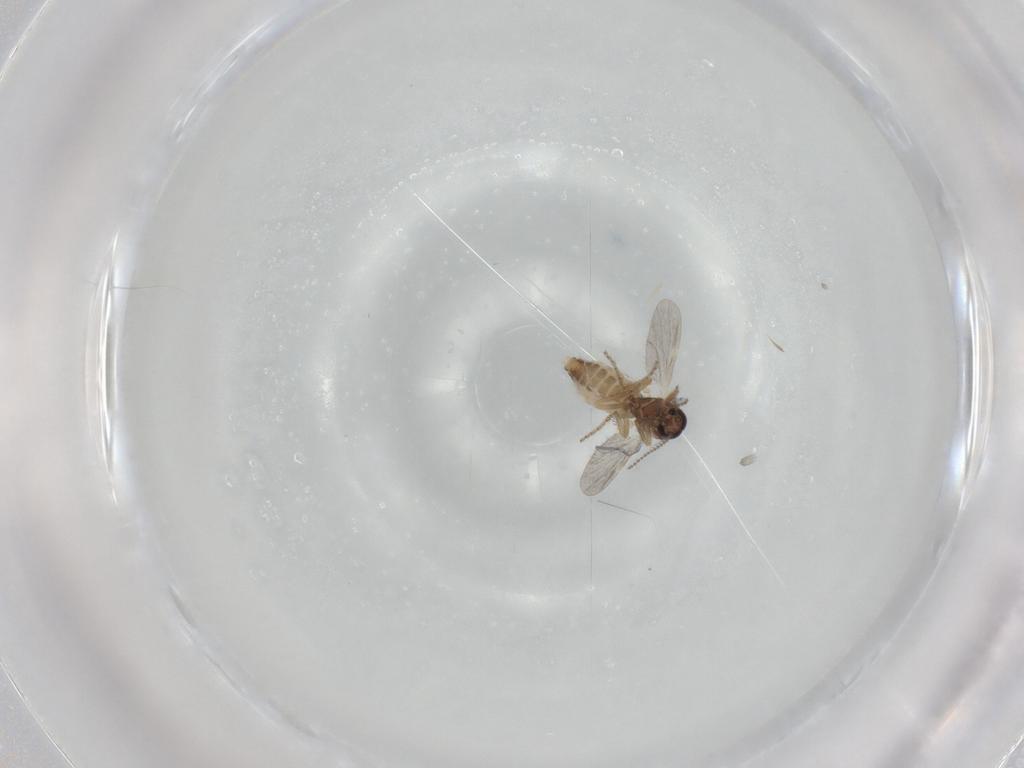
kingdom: Animalia
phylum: Arthropoda
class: Insecta
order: Diptera
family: Ceratopogonidae
